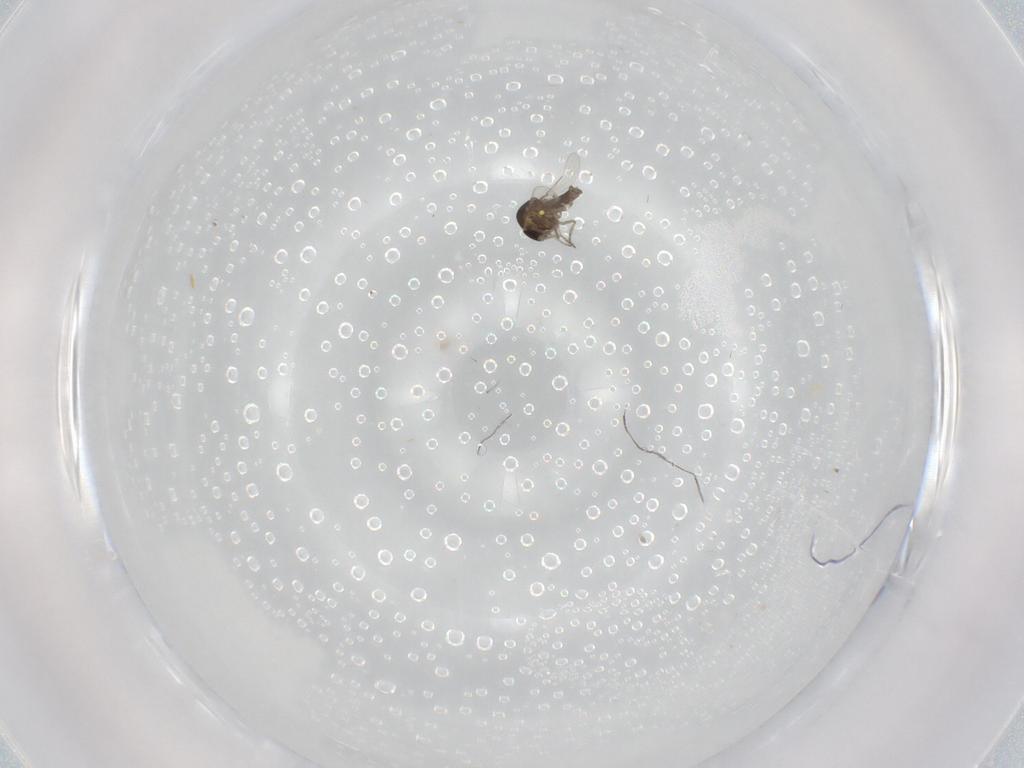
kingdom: Animalia
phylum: Arthropoda
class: Insecta
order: Diptera
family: Ceratopogonidae
